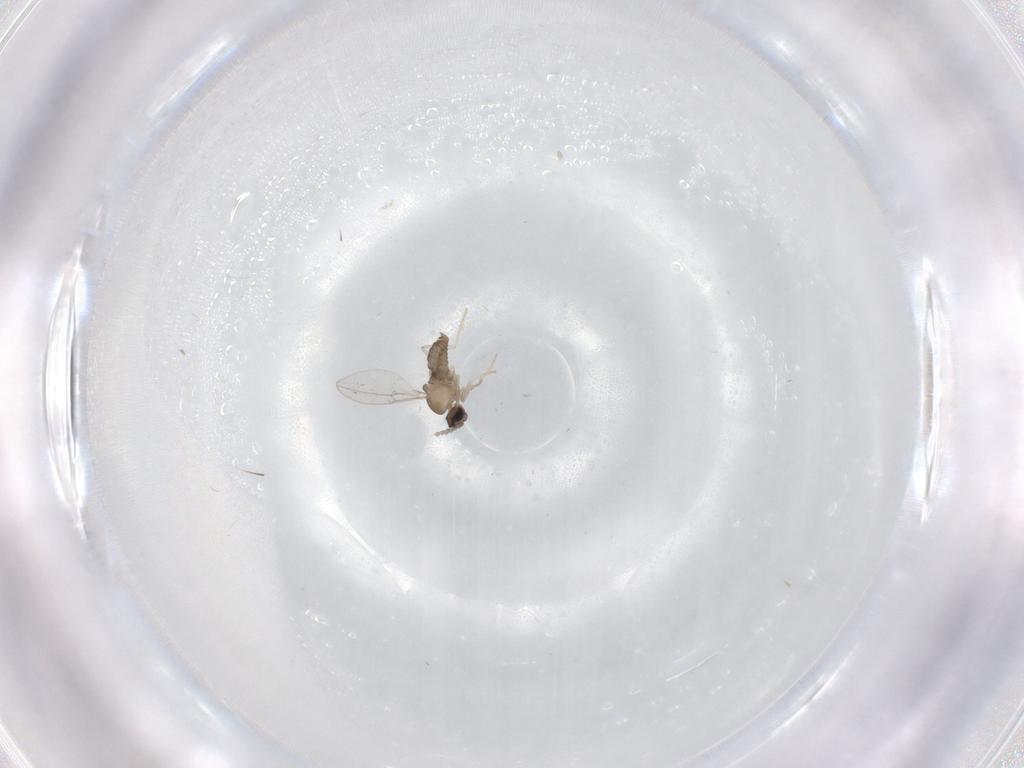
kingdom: Animalia
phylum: Arthropoda
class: Insecta
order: Diptera
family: Cecidomyiidae
